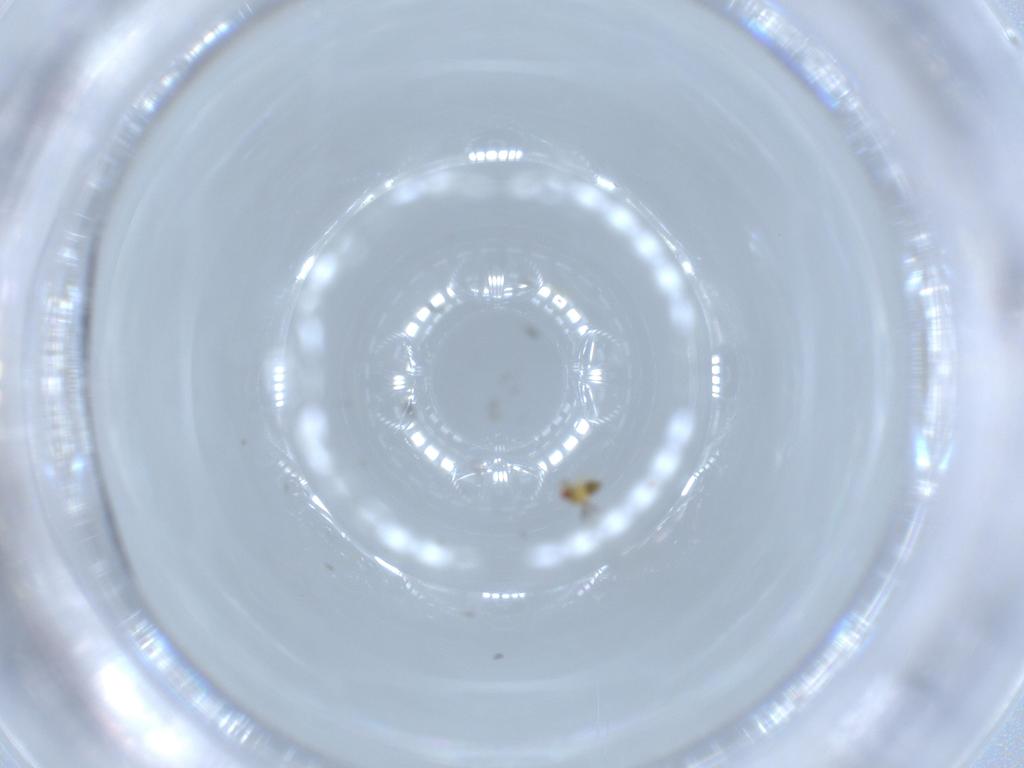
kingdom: Animalia
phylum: Arthropoda
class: Insecta
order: Hymenoptera
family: Trichogrammatidae
